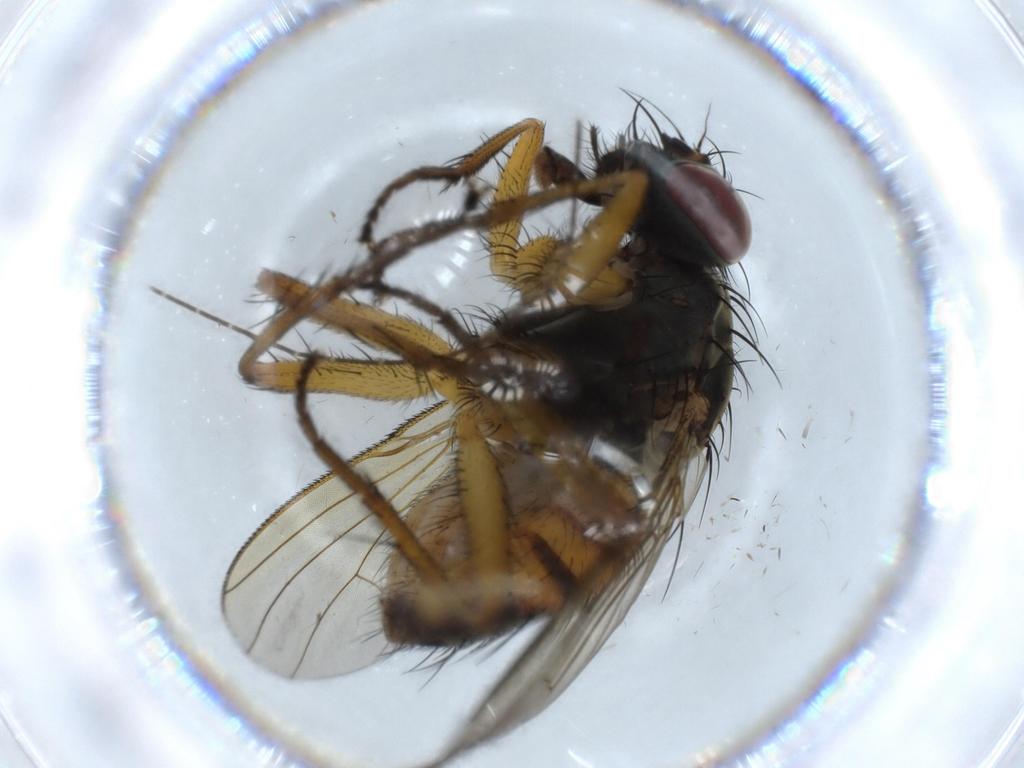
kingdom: Animalia
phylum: Arthropoda
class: Insecta
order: Diptera
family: Muscidae
